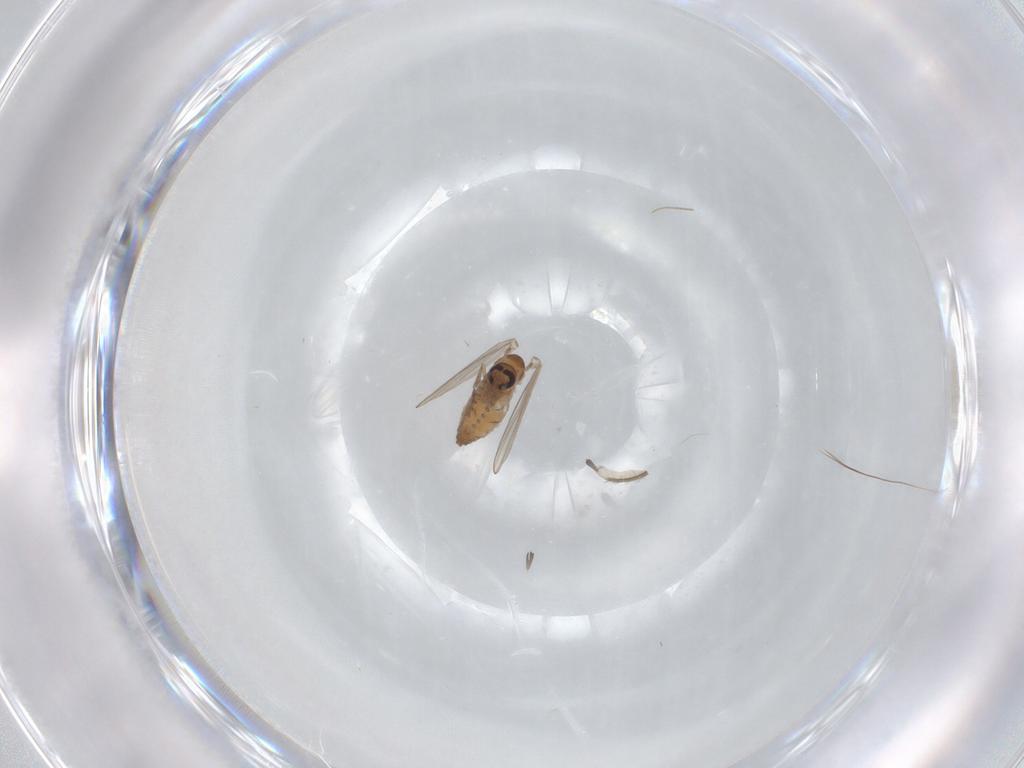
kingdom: Animalia
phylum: Arthropoda
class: Insecta
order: Diptera
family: Psychodidae
